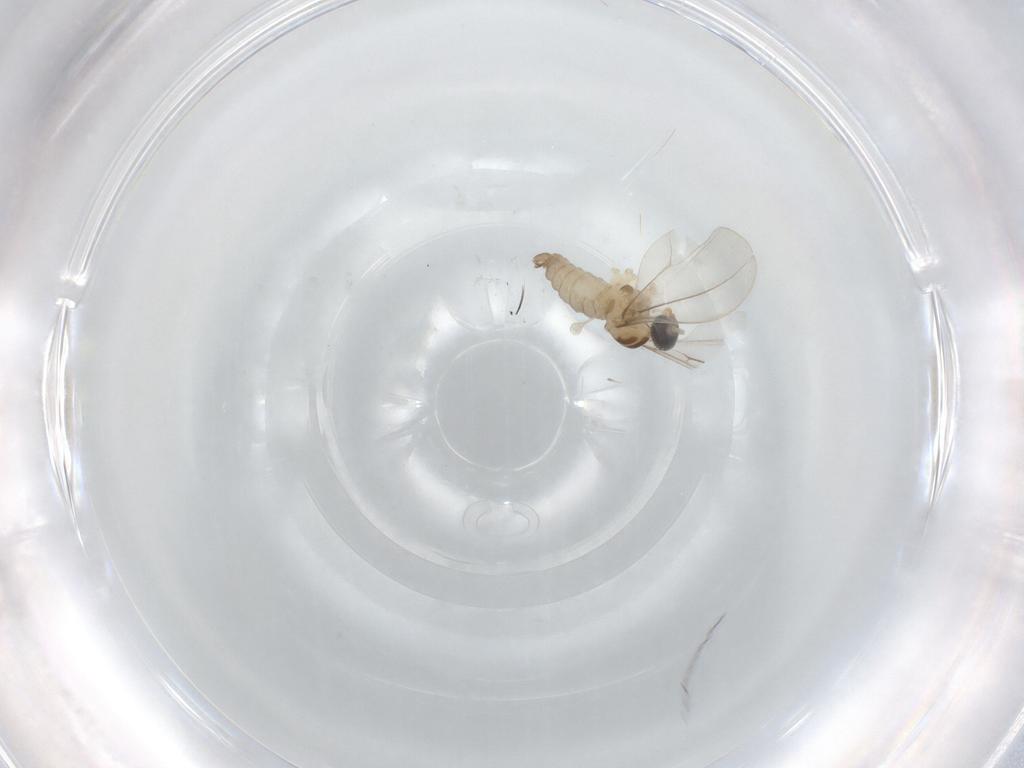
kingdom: Animalia
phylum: Arthropoda
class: Insecta
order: Diptera
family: Cecidomyiidae
